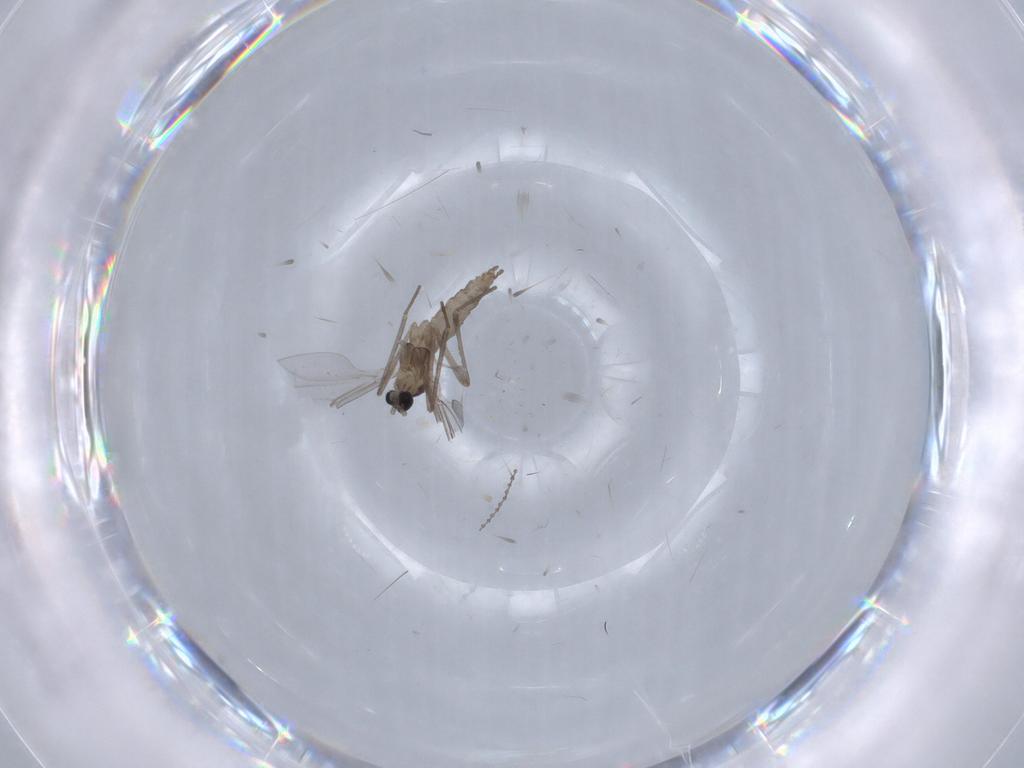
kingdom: Animalia
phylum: Arthropoda
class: Insecta
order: Diptera
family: Cecidomyiidae
